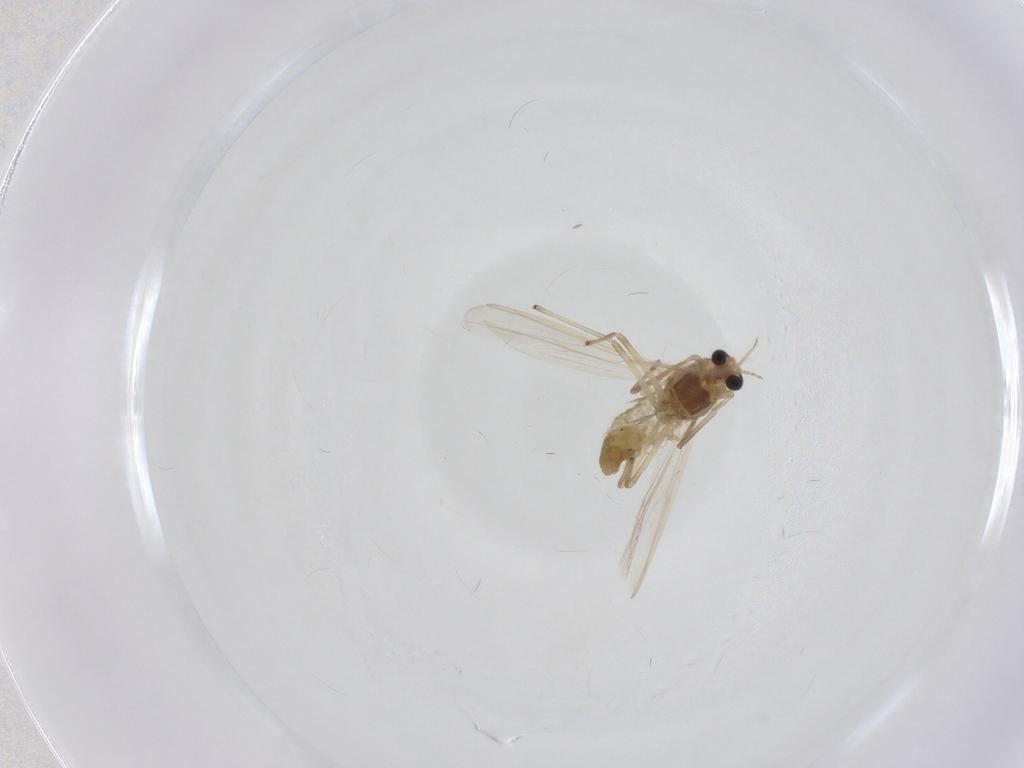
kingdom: Animalia
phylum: Arthropoda
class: Insecta
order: Diptera
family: Chironomidae
